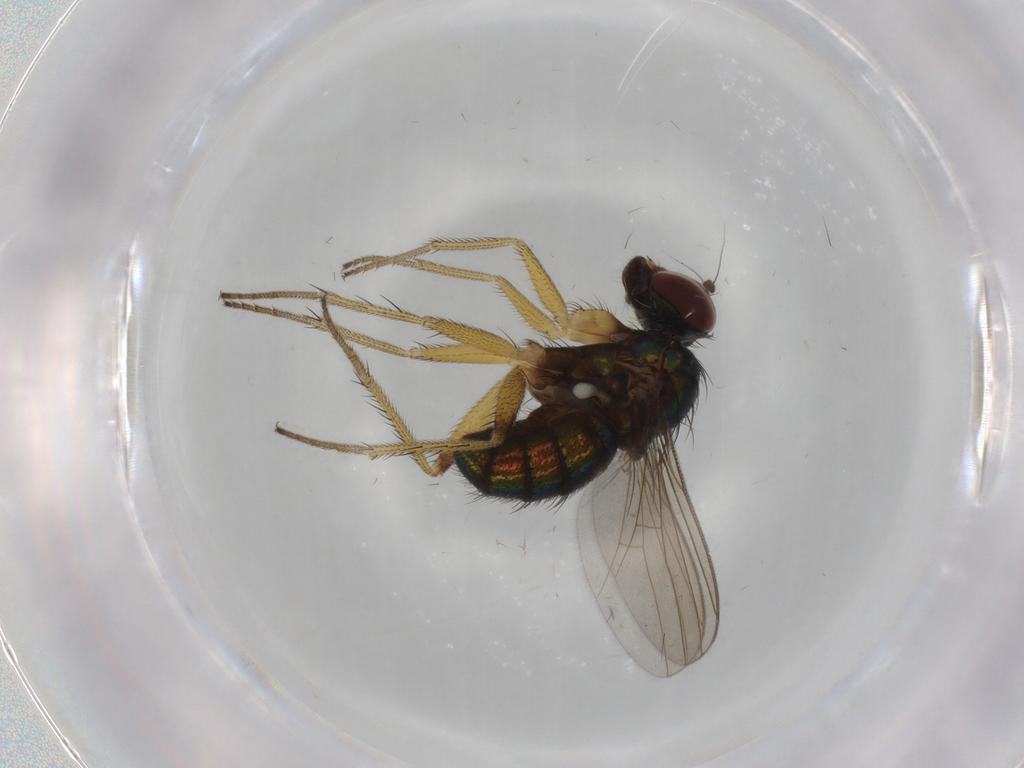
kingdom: Animalia
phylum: Arthropoda
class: Insecta
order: Diptera
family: Dolichopodidae
